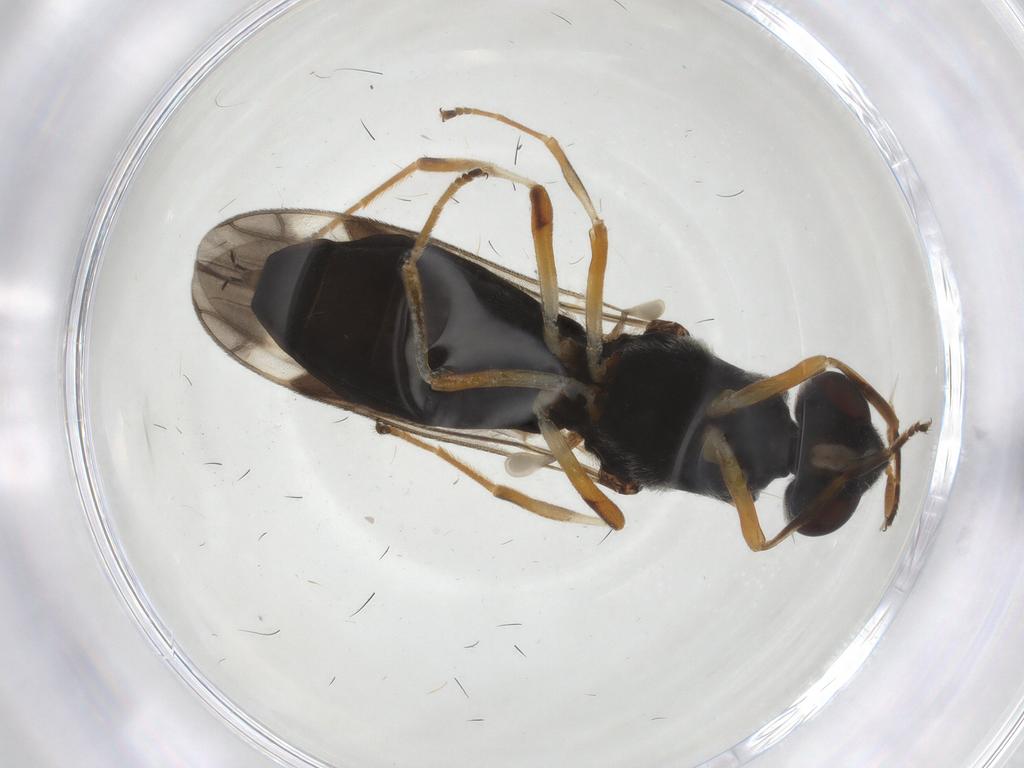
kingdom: Animalia
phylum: Arthropoda
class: Insecta
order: Diptera
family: Stratiomyidae
